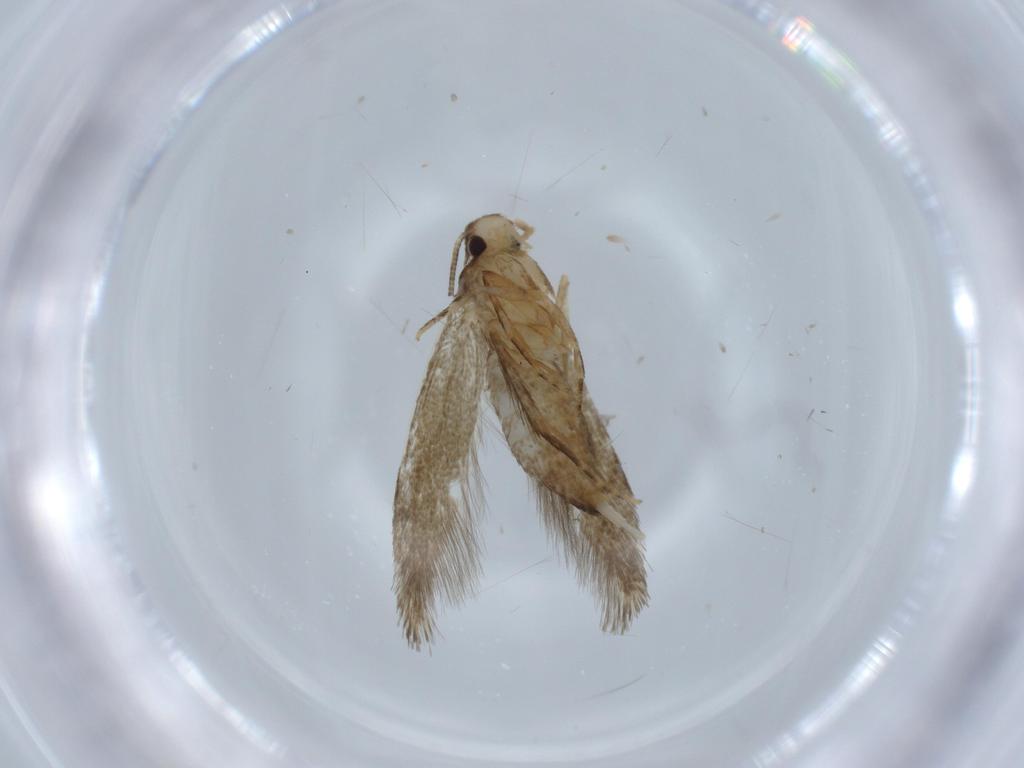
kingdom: Animalia
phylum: Arthropoda
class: Insecta
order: Lepidoptera
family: Tineidae
